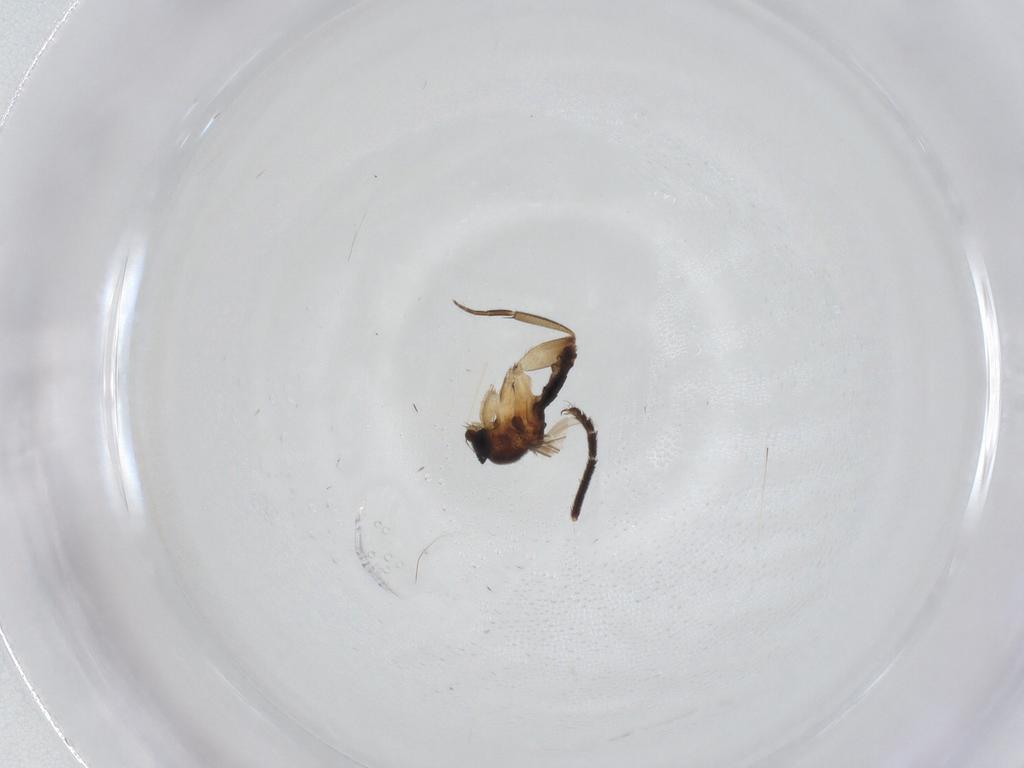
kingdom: Animalia
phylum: Arthropoda
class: Insecta
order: Diptera
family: Phoridae
